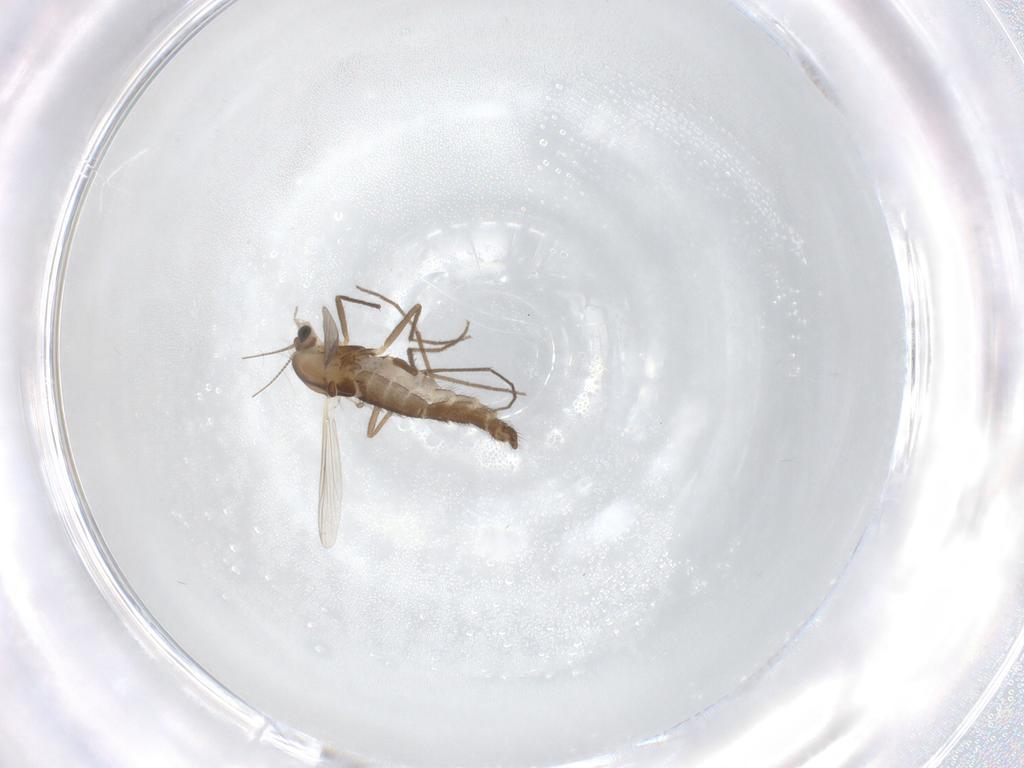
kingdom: Animalia
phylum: Arthropoda
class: Insecta
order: Diptera
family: Chironomidae
